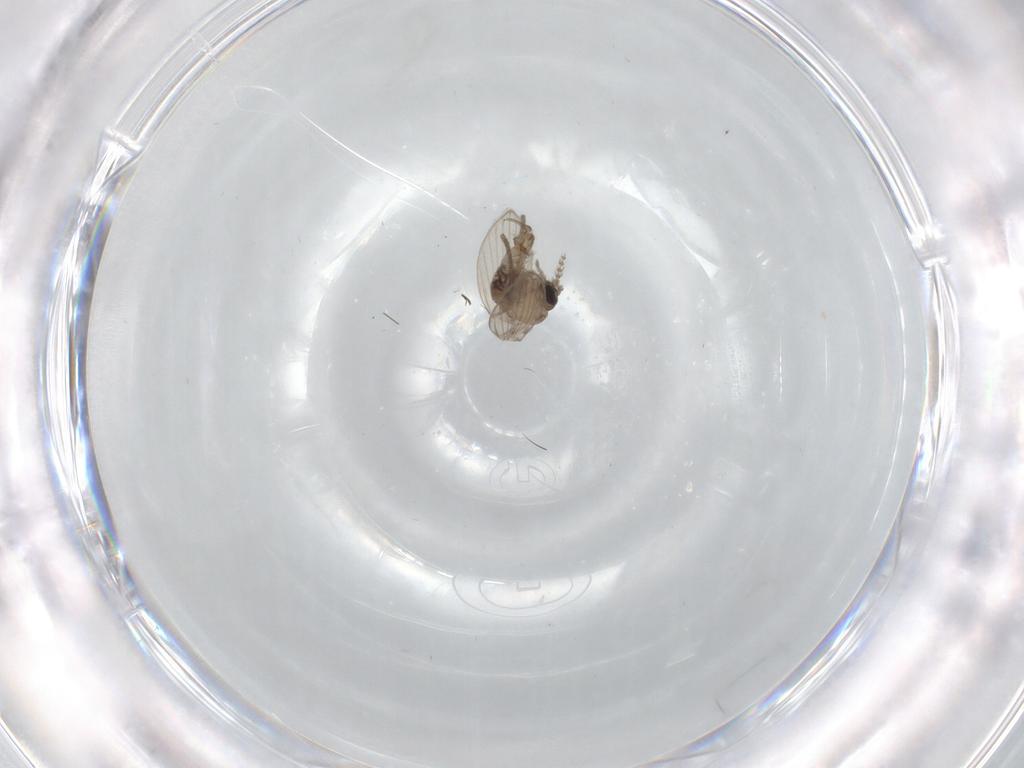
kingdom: Animalia
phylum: Arthropoda
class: Insecta
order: Diptera
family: Psychodidae
